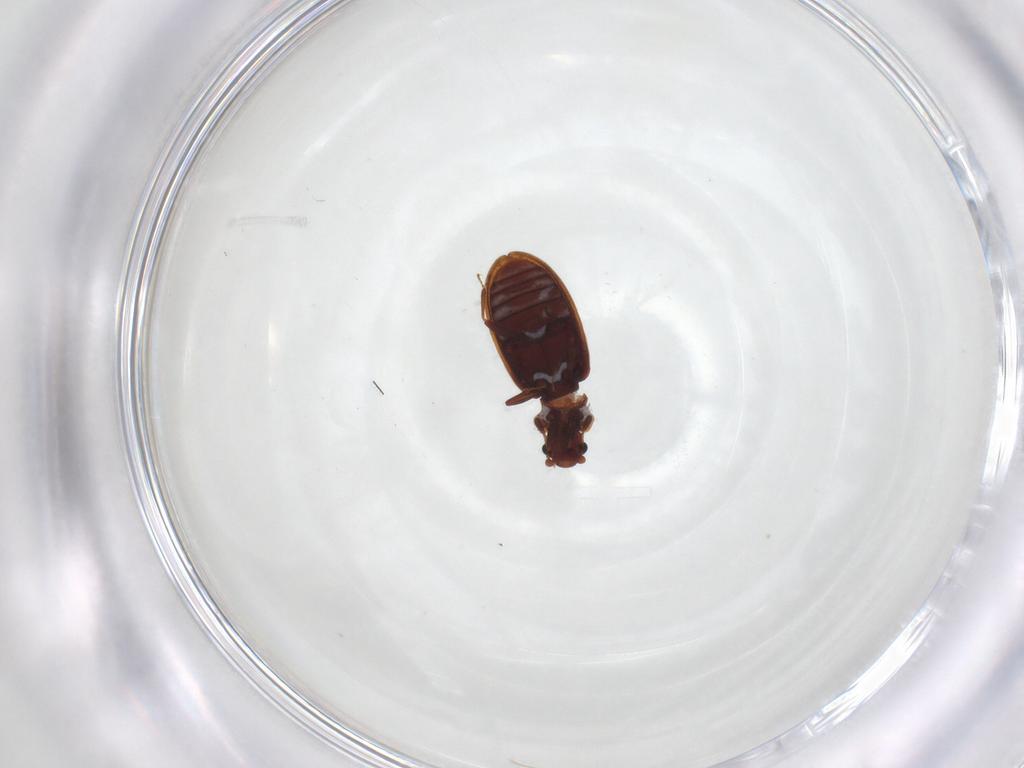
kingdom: Animalia
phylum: Arthropoda
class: Insecta
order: Coleoptera
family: Latridiidae
